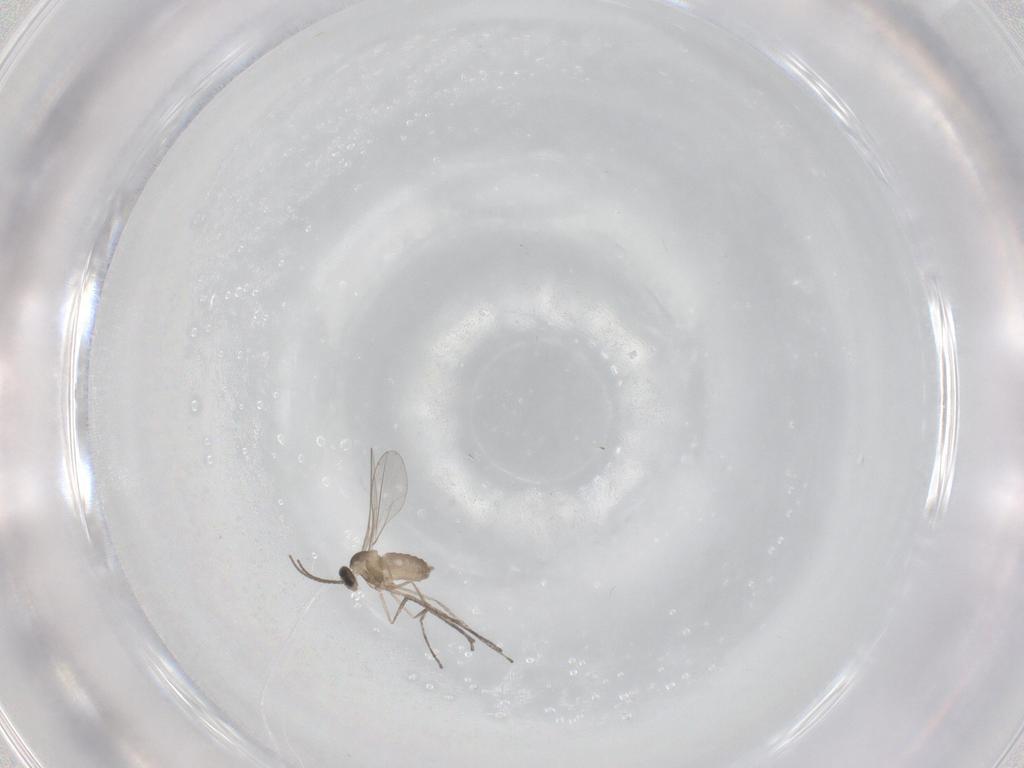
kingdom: Animalia
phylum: Arthropoda
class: Insecta
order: Diptera
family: Cecidomyiidae
